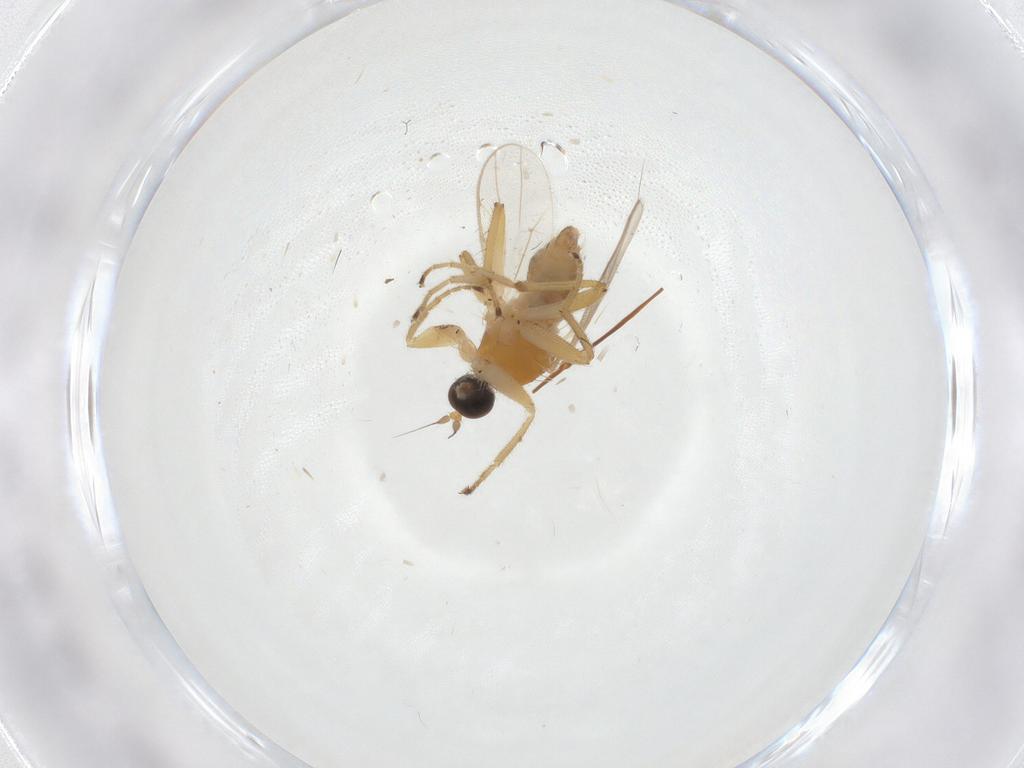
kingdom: Animalia
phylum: Arthropoda
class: Insecta
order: Diptera
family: Hybotidae
